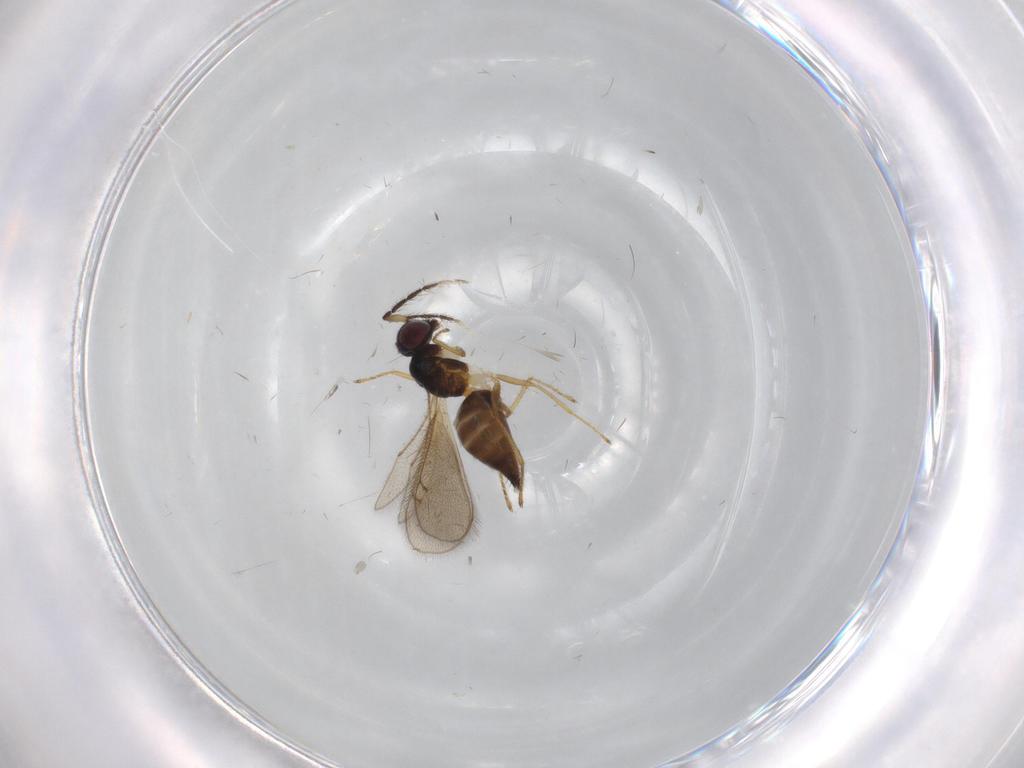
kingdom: Animalia
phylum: Arthropoda
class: Insecta
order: Hymenoptera
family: Eulophidae
